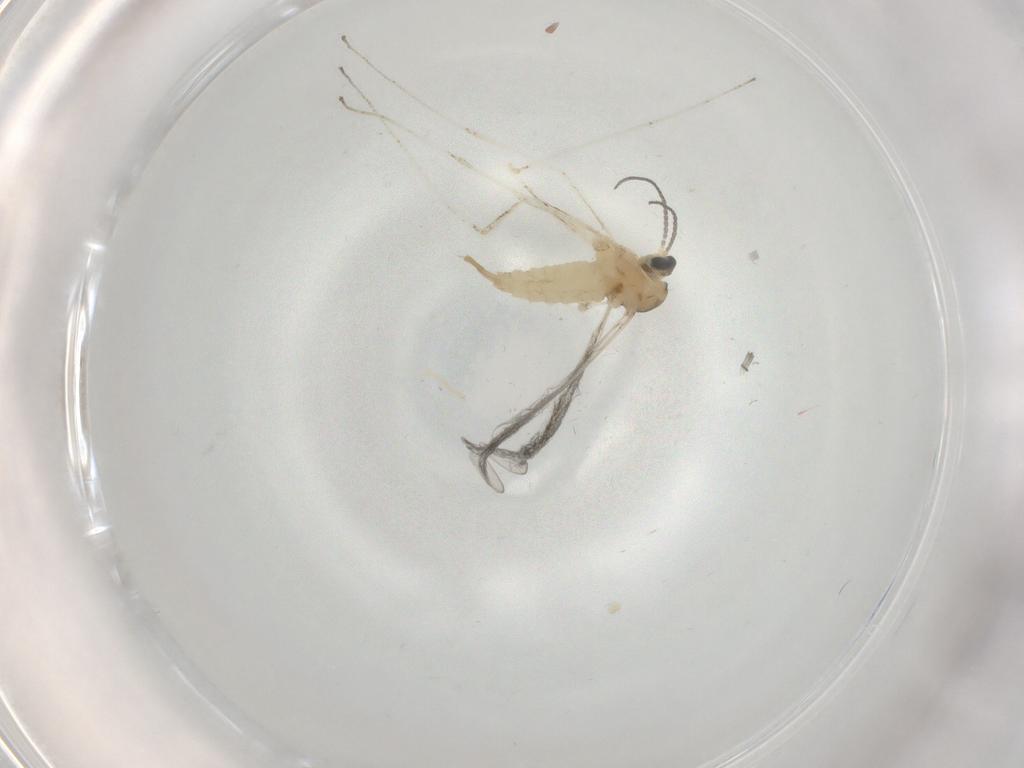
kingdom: Animalia
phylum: Arthropoda
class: Insecta
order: Diptera
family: Cecidomyiidae
